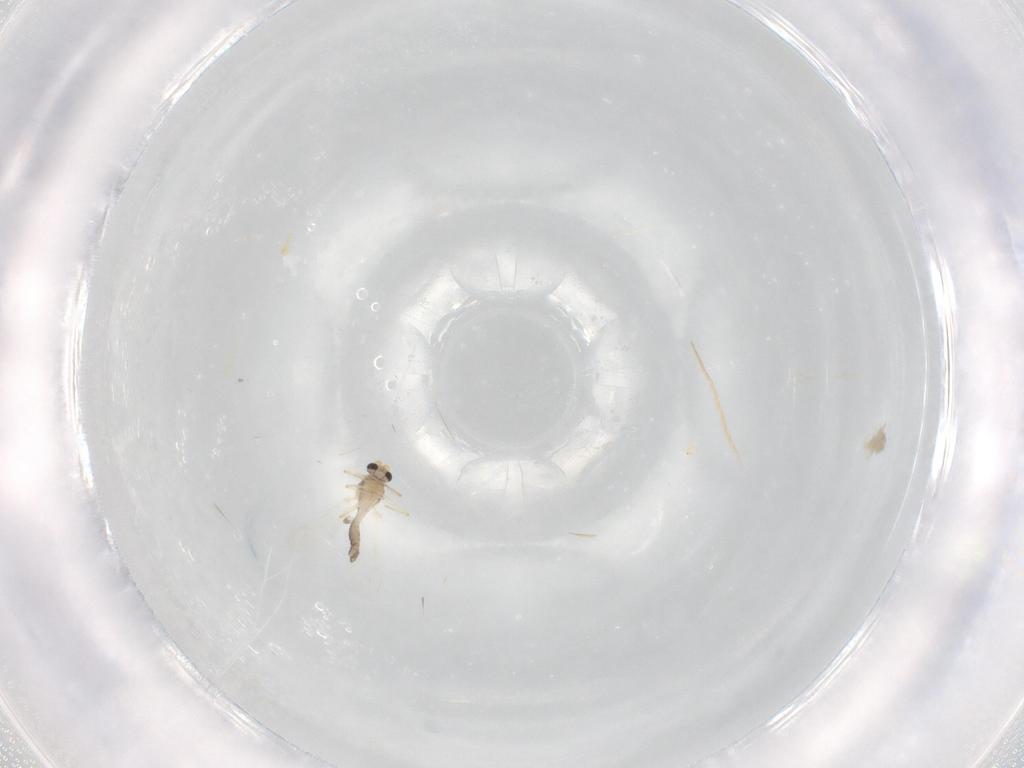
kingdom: Animalia
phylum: Arthropoda
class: Insecta
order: Diptera
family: Chironomidae
